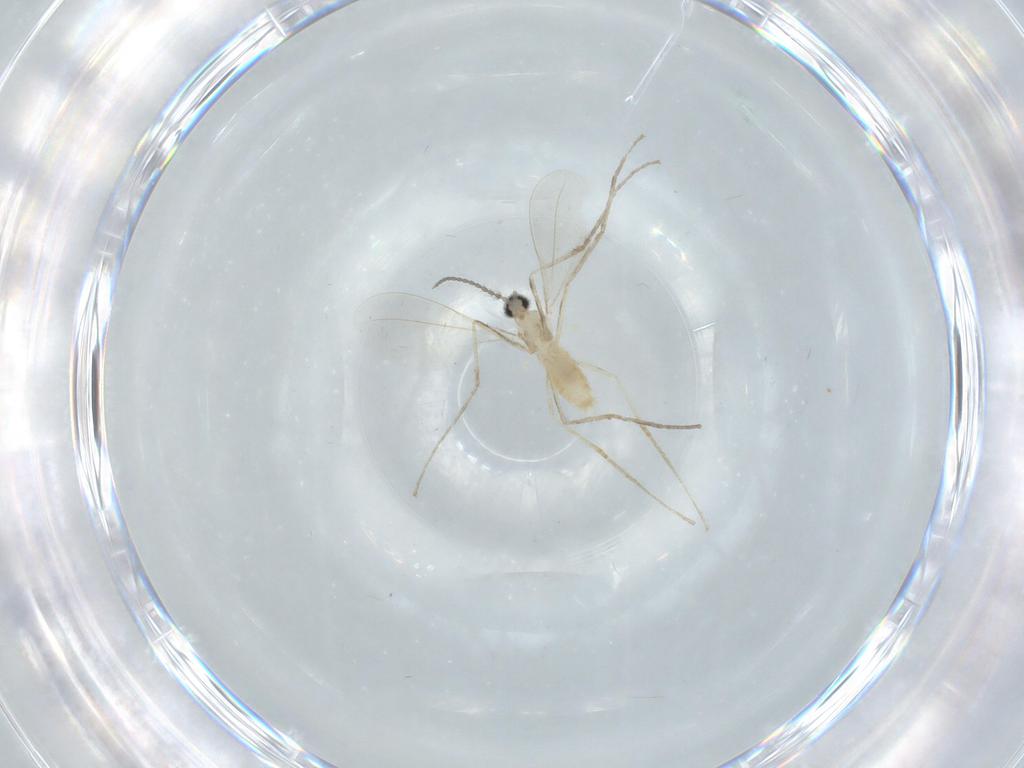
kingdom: Animalia
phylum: Arthropoda
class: Insecta
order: Diptera
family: Cecidomyiidae
